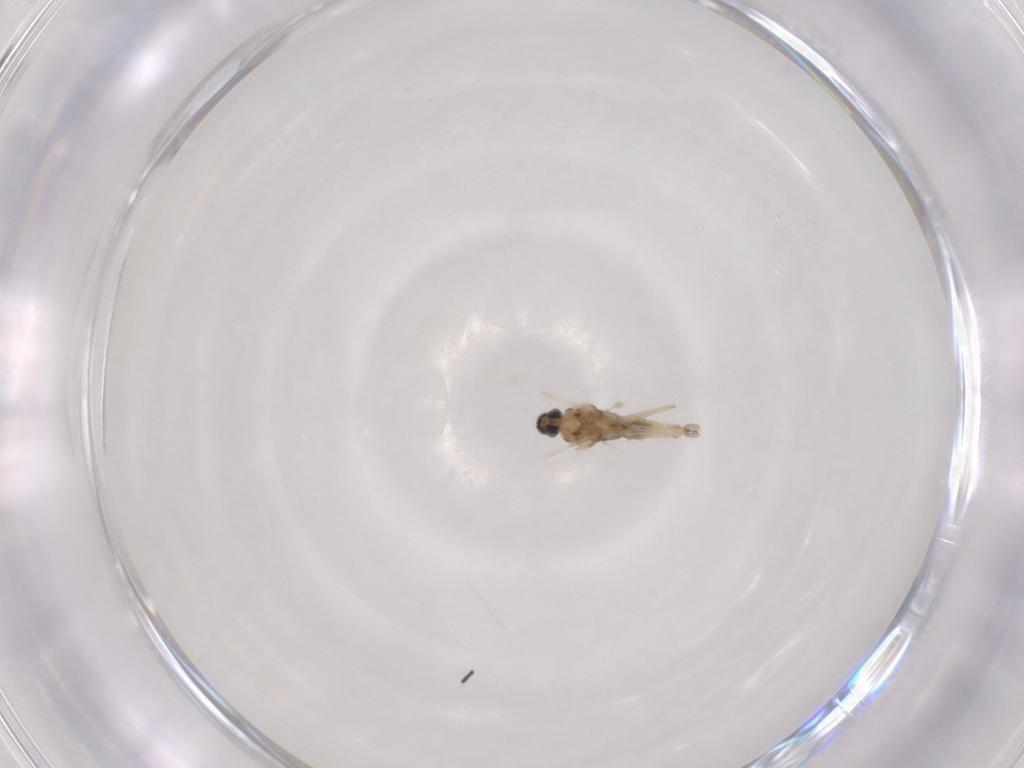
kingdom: Animalia
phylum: Arthropoda
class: Insecta
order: Diptera
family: Cecidomyiidae
